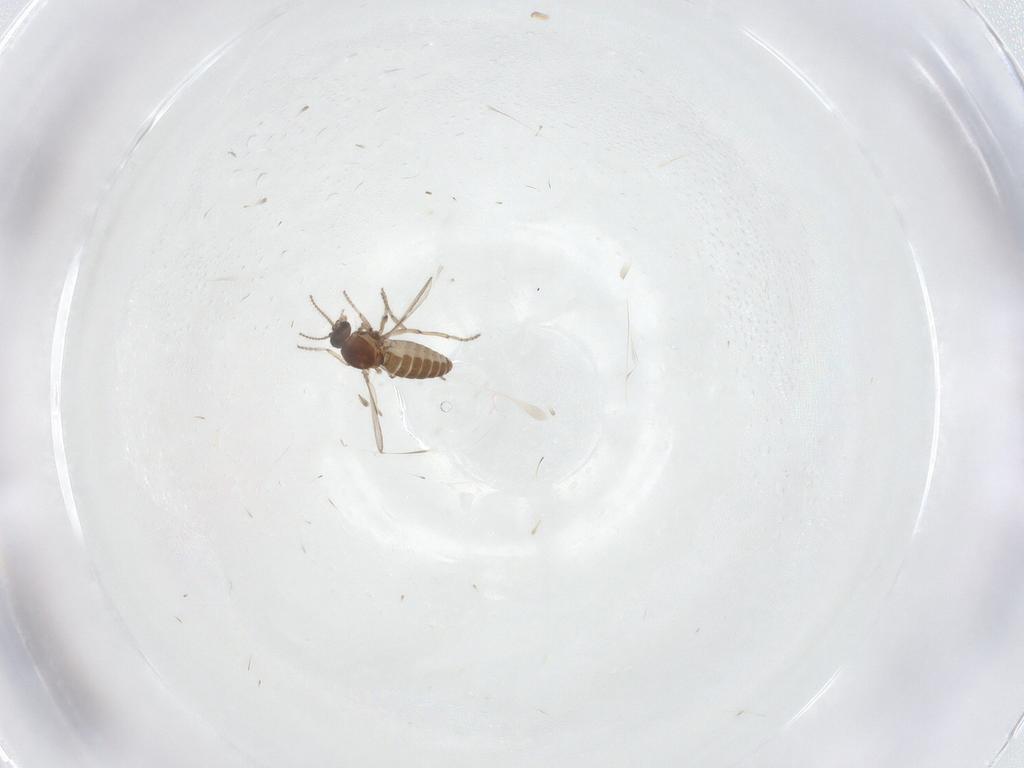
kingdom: Animalia
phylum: Arthropoda
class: Insecta
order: Diptera
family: Ceratopogonidae
